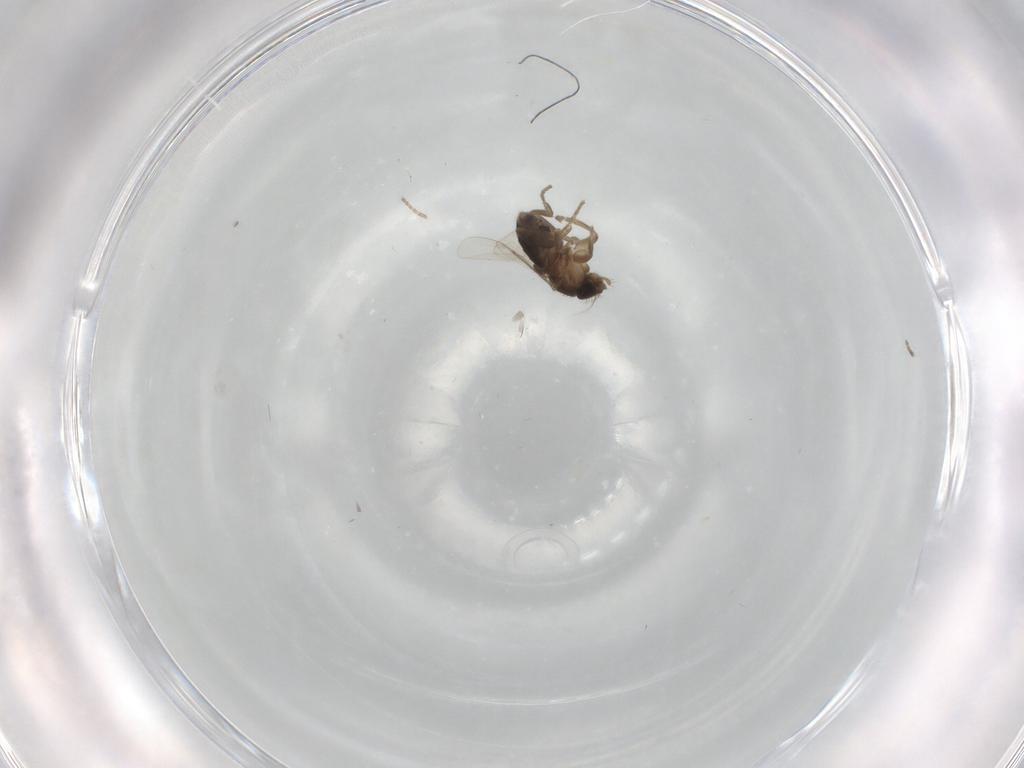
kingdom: Animalia
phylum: Arthropoda
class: Insecta
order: Diptera
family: Phoridae
